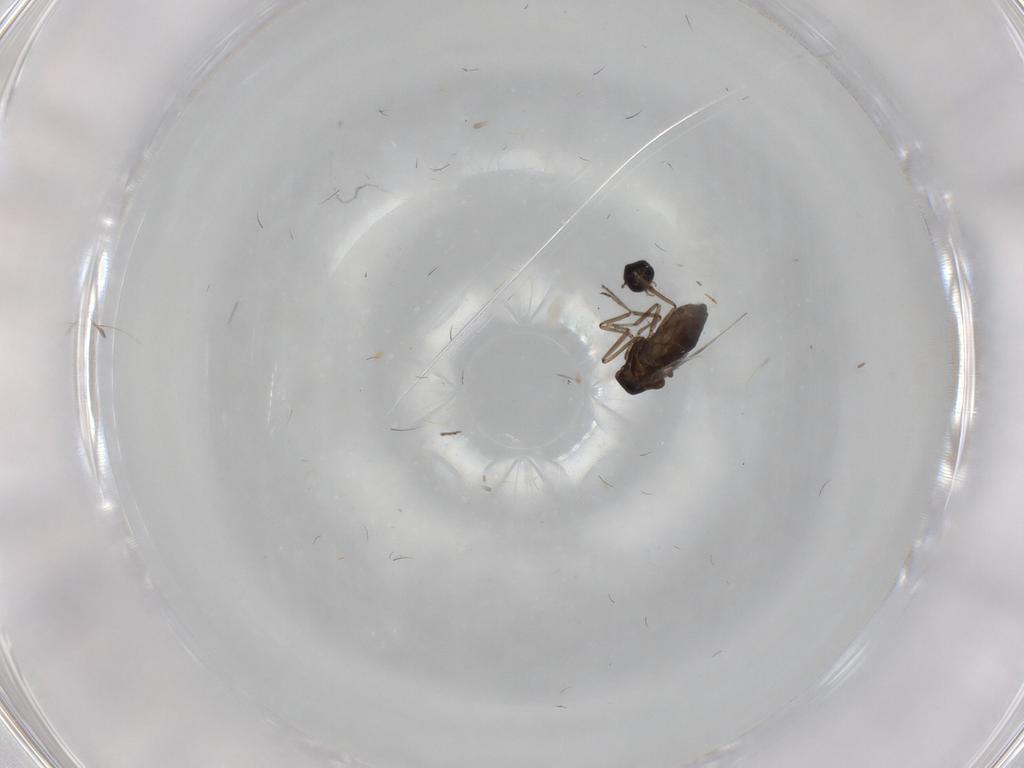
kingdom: Animalia
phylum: Arthropoda
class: Insecta
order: Diptera
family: Ceratopogonidae
